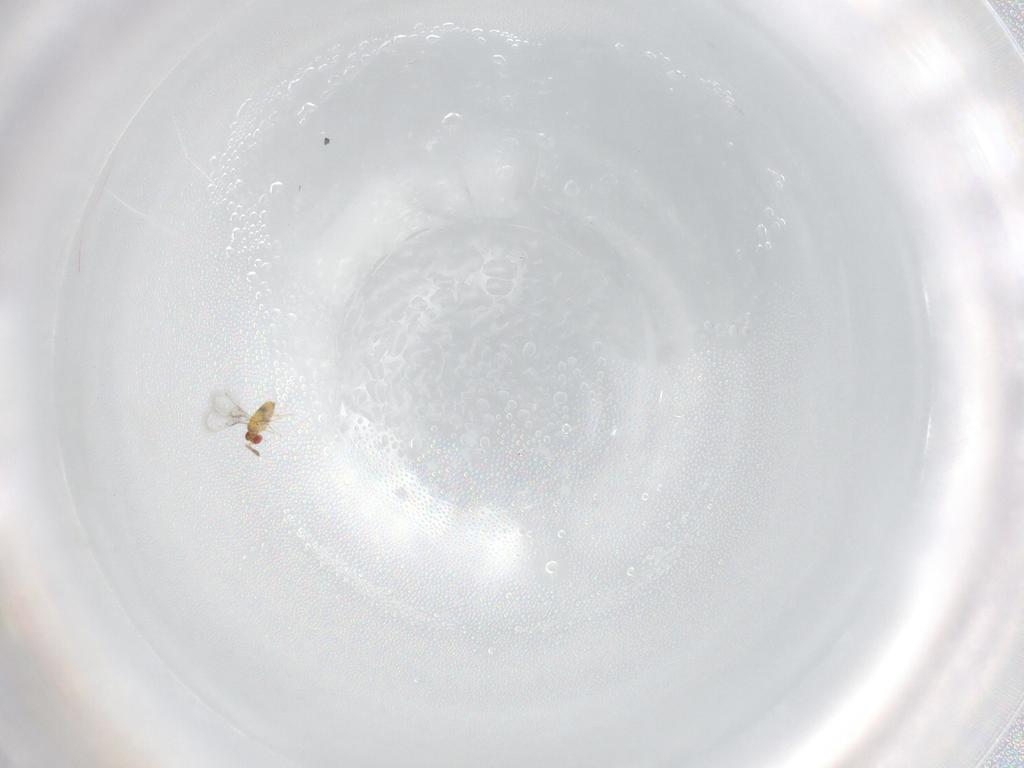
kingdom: Animalia
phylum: Arthropoda
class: Insecta
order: Hymenoptera
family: Trichogrammatidae
